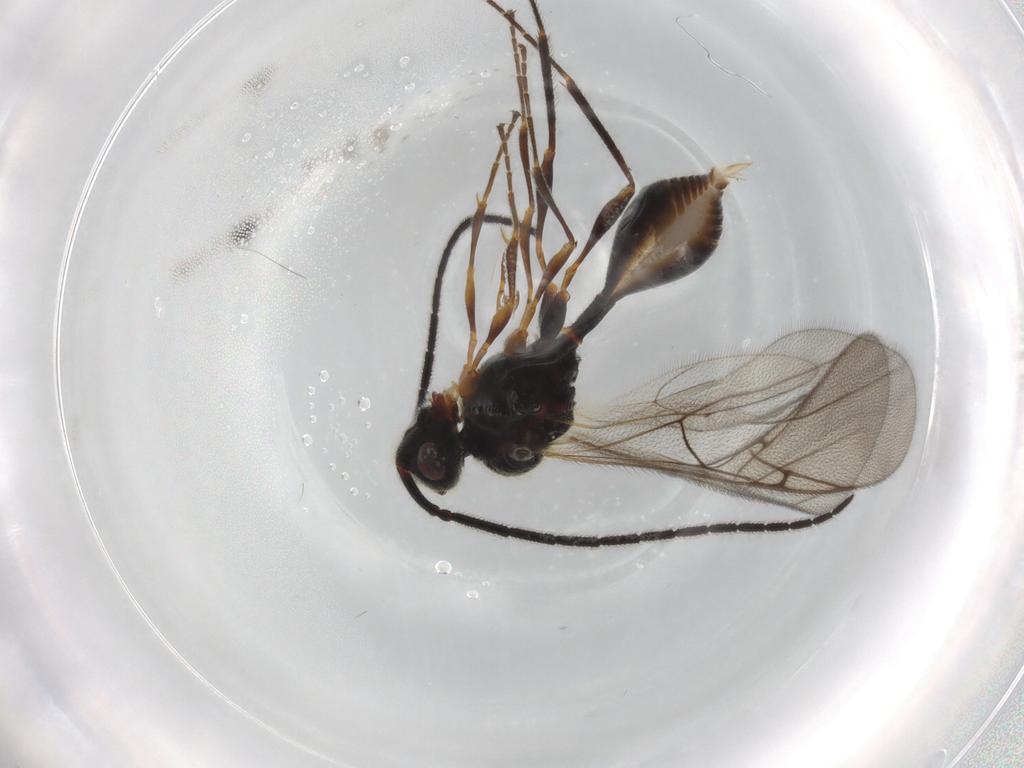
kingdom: Animalia
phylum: Arthropoda
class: Insecta
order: Hymenoptera
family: Diapriidae
